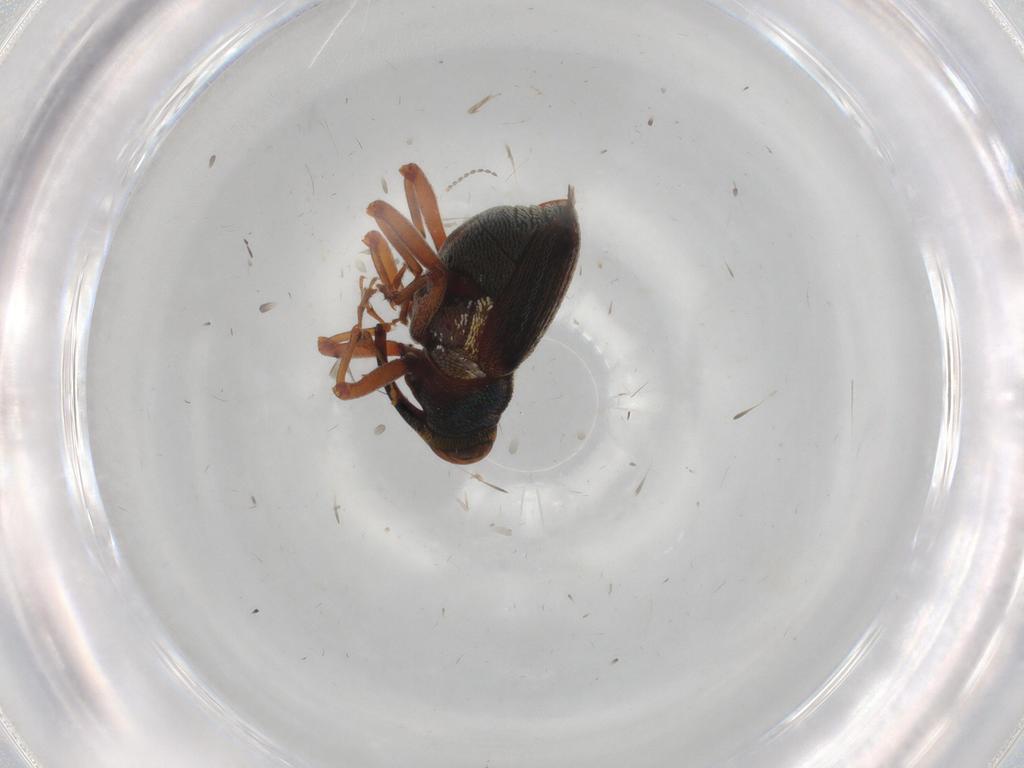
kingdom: Animalia
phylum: Arthropoda
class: Insecta
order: Coleoptera
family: Curculionidae
